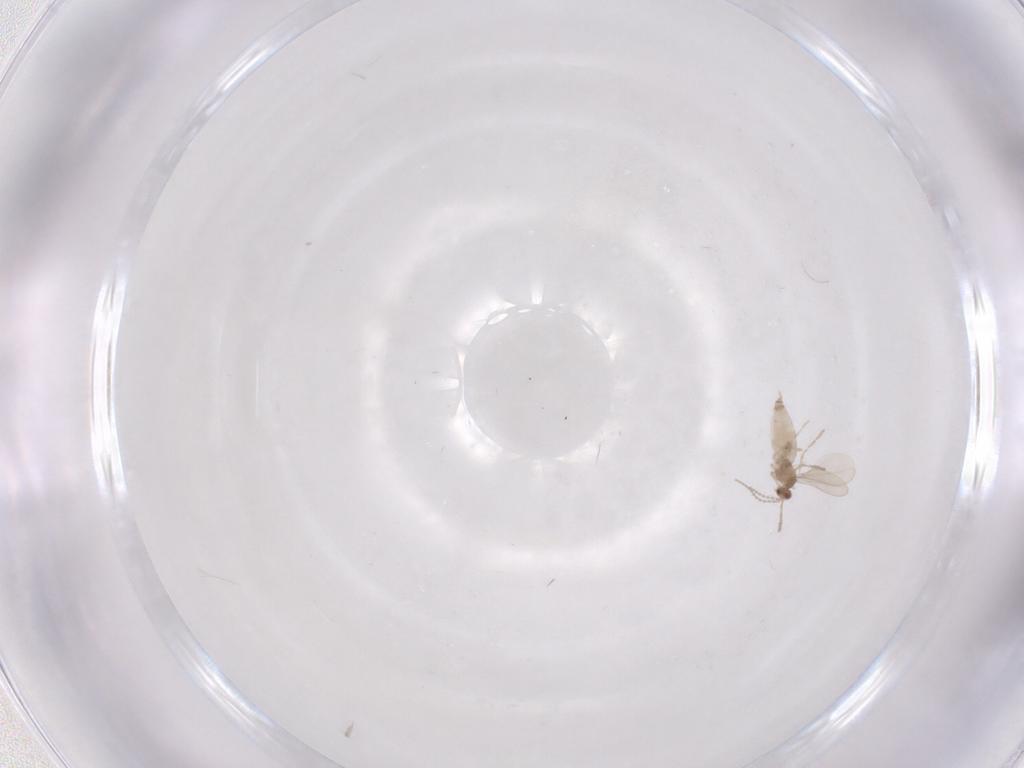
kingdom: Animalia
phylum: Arthropoda
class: Insecta
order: Diptera
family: Cecidomyiidae
